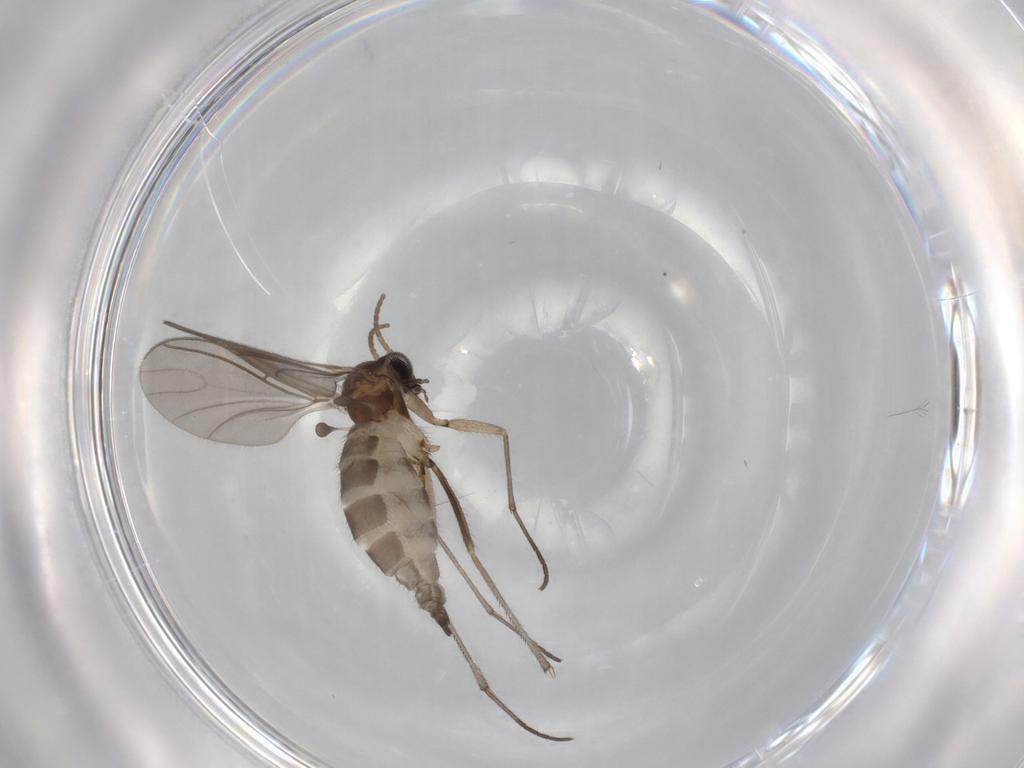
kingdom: Animalia
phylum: Arthropoda
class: Insecta
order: Diptera
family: Sciaridae
